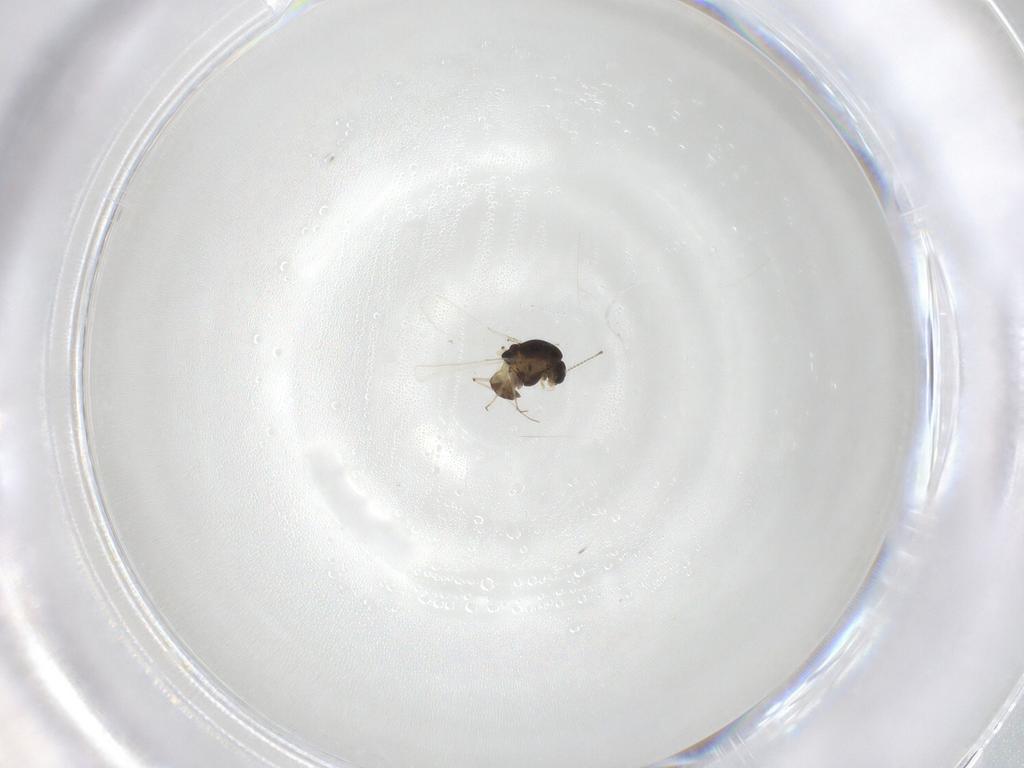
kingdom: Animalia
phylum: Arthropoda
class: Insecta
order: Diptera
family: Chironomidae
